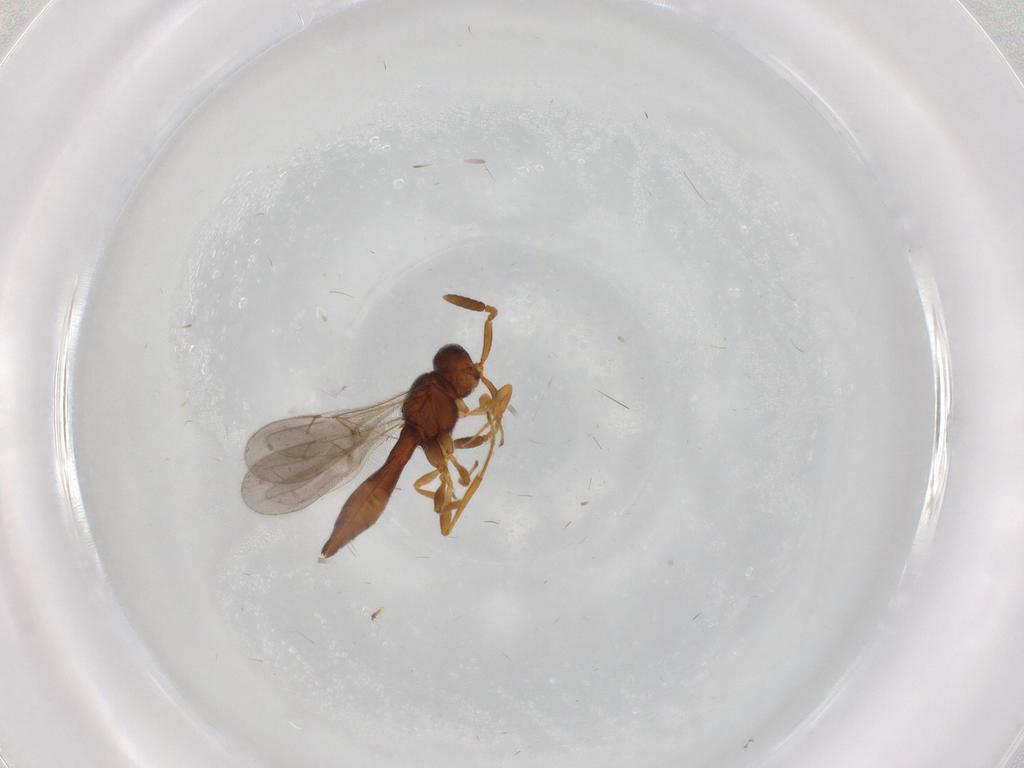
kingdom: Animalia
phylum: Arthropoda
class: Insecta
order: Hymenoptera
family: Scelionidae
